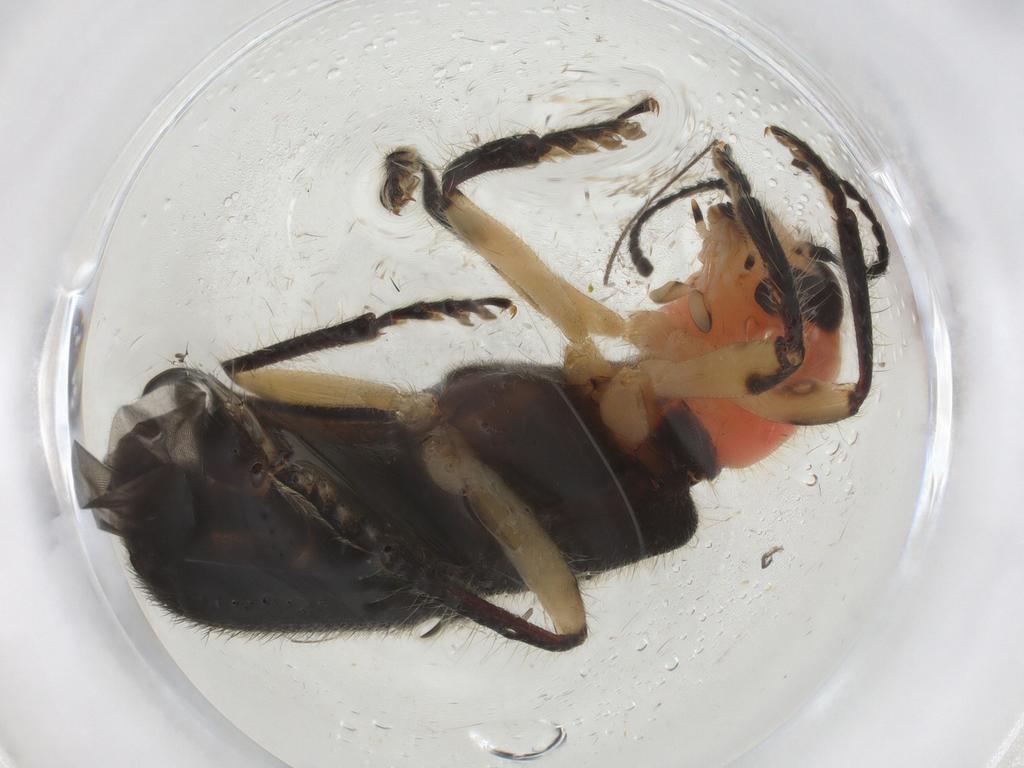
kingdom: Animalia
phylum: Arthropoda
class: Insecta
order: Coleoptera
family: Cleridae
